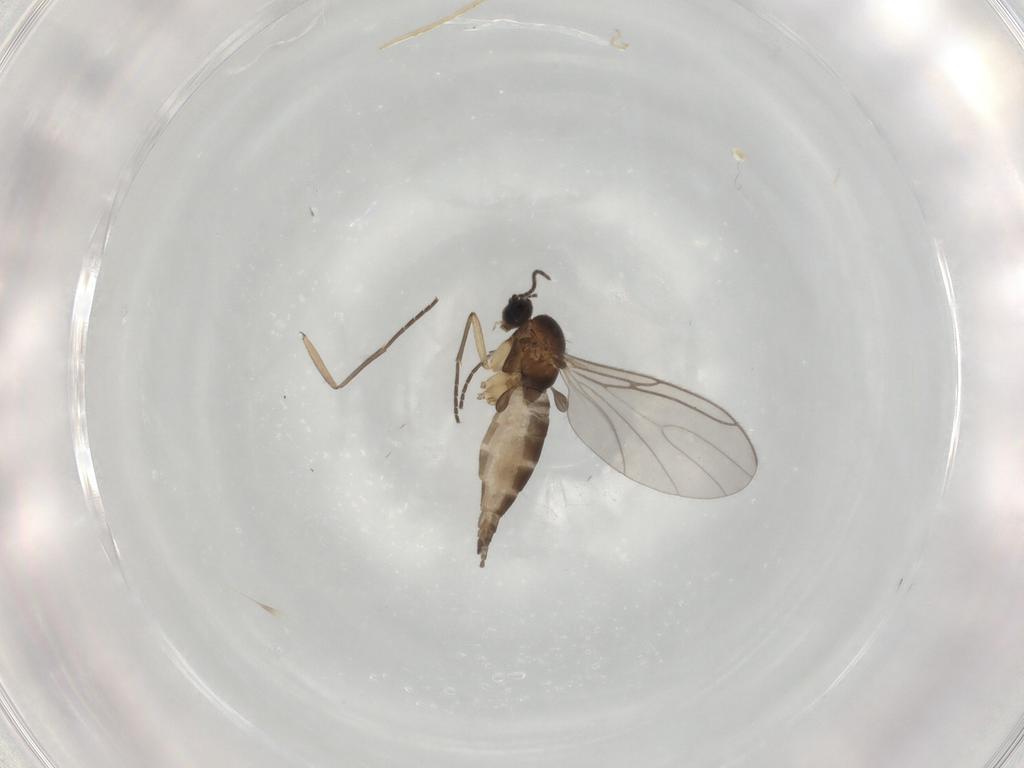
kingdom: Animalia
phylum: Arthropoda
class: Insecta
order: Diptera
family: Sciaridae
